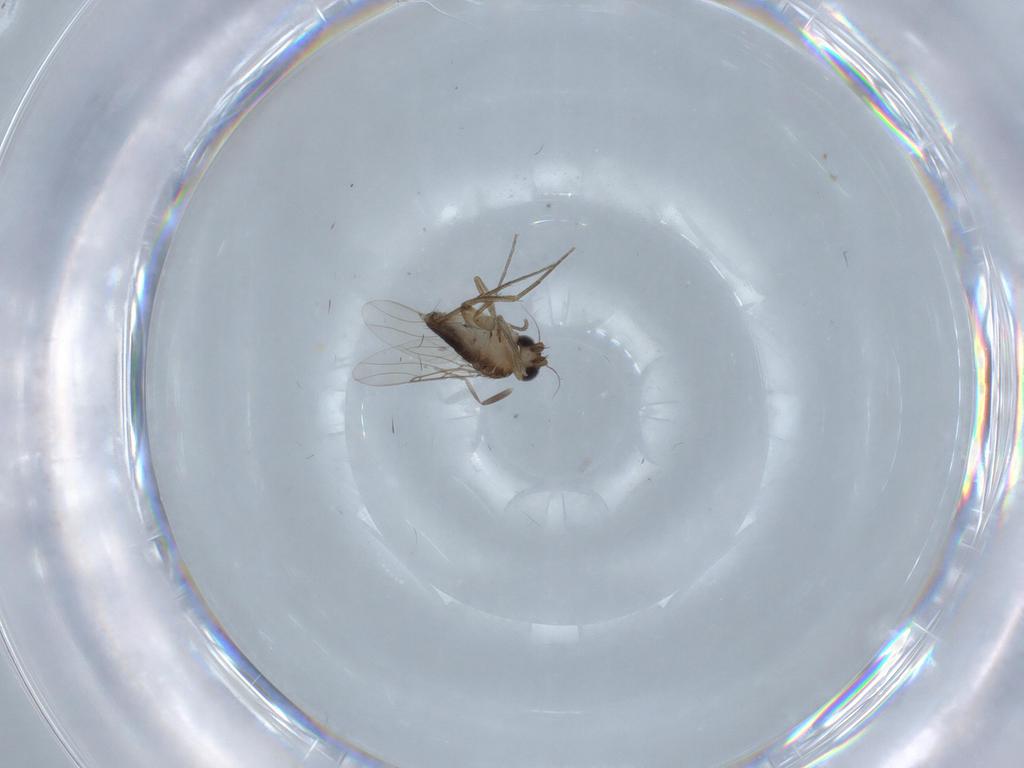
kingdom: Animalia
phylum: Arthropoda
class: Insecta
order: Diptera
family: Phoridae
